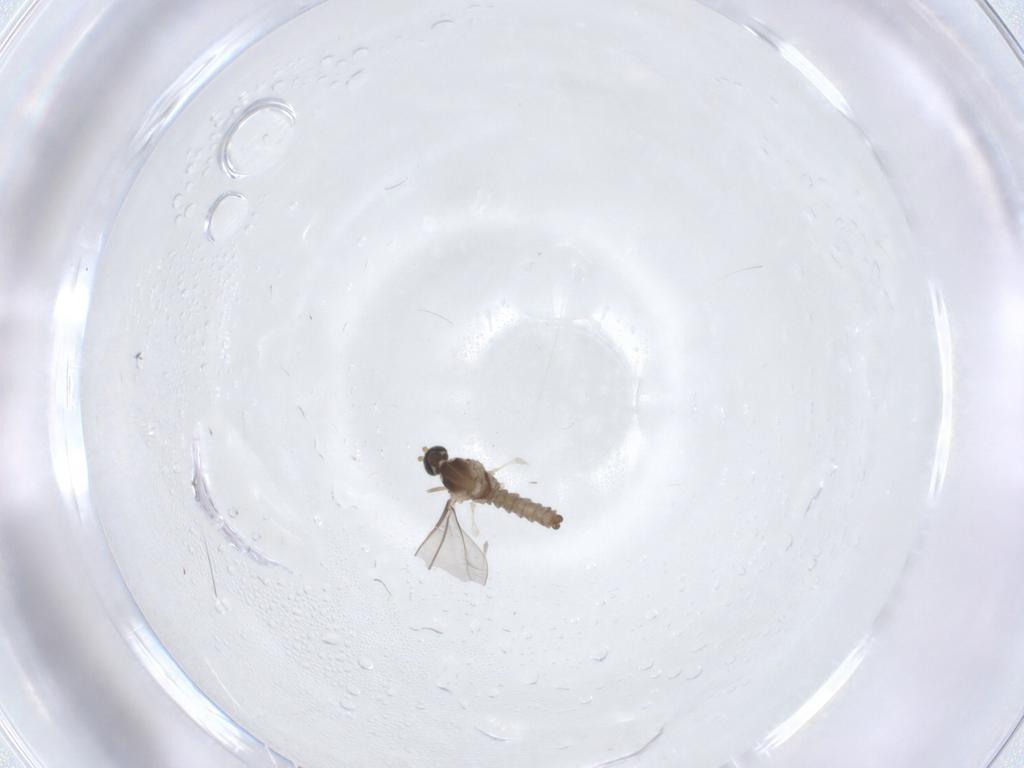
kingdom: Animalia
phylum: Arthropoda
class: Insecta
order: Diptera
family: Cecidomyiidae
